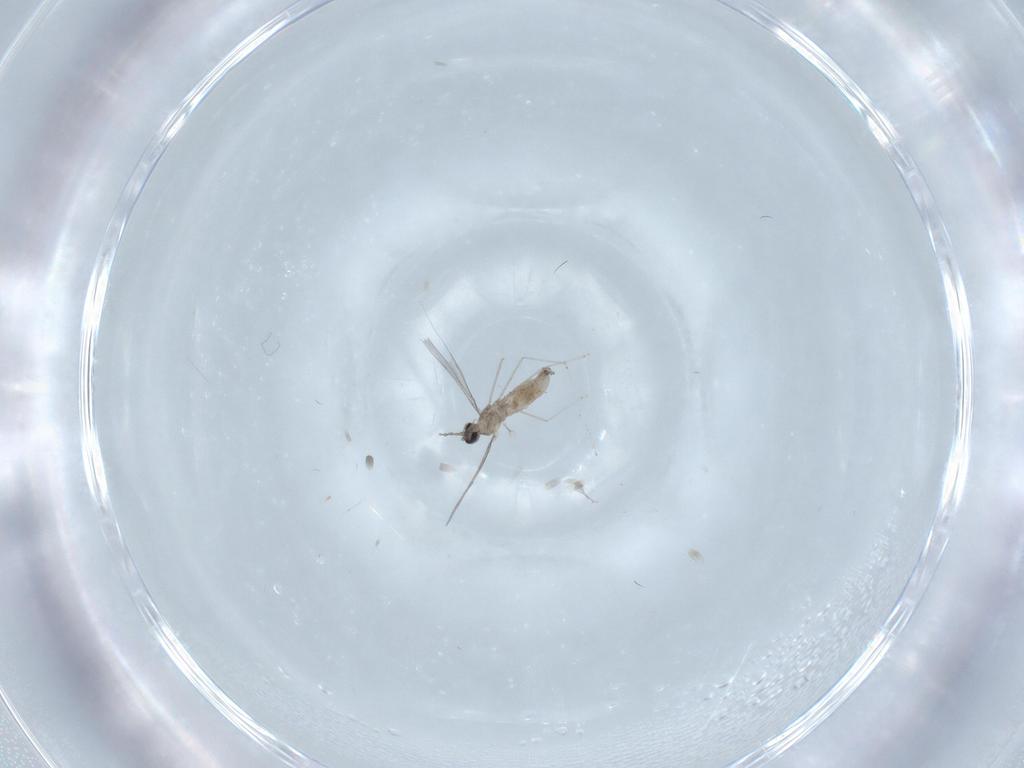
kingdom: Animalia
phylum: Arthropoda
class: Insecta
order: Diptera
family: Cecidomyiidae
